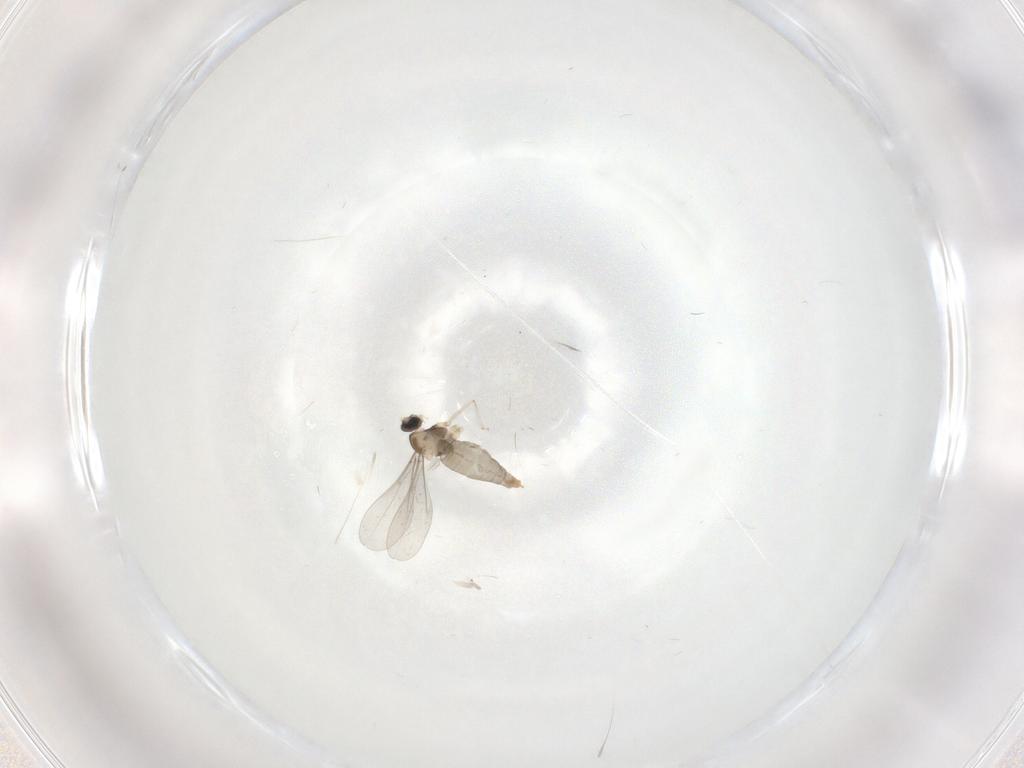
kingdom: Animalia
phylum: Arthropoda
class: Insecta
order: Diptera
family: Cecidomyiidae
